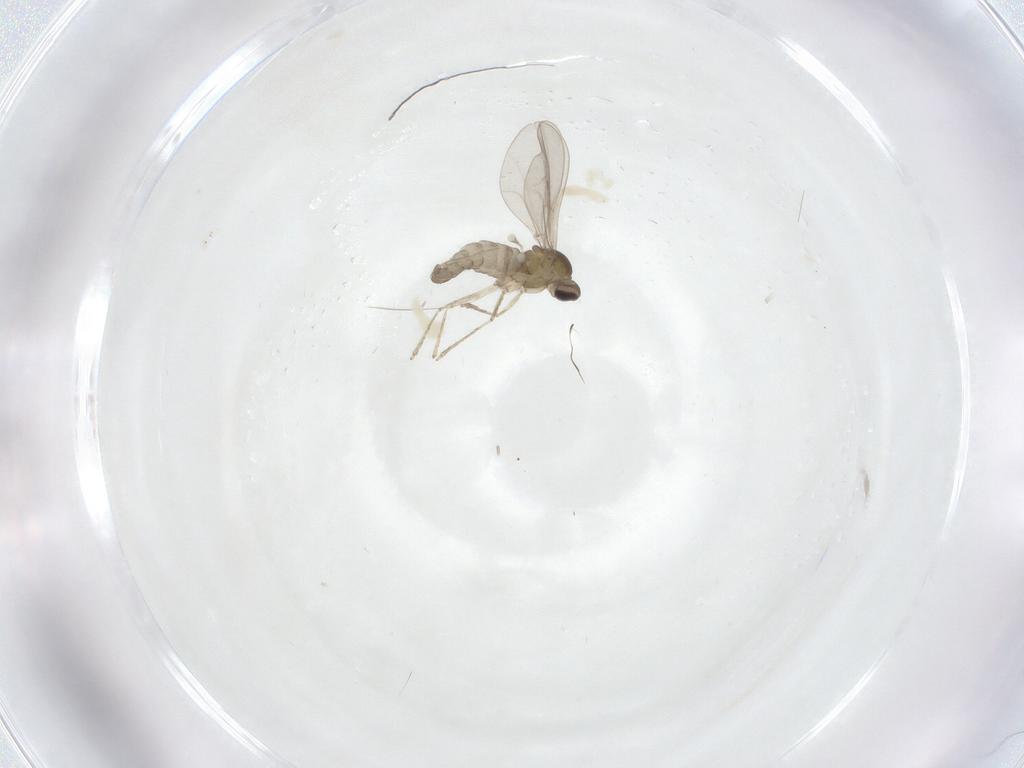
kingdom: Animalia
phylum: Arthropoda
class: Insecta
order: Diptera
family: Cecidomyiidae
